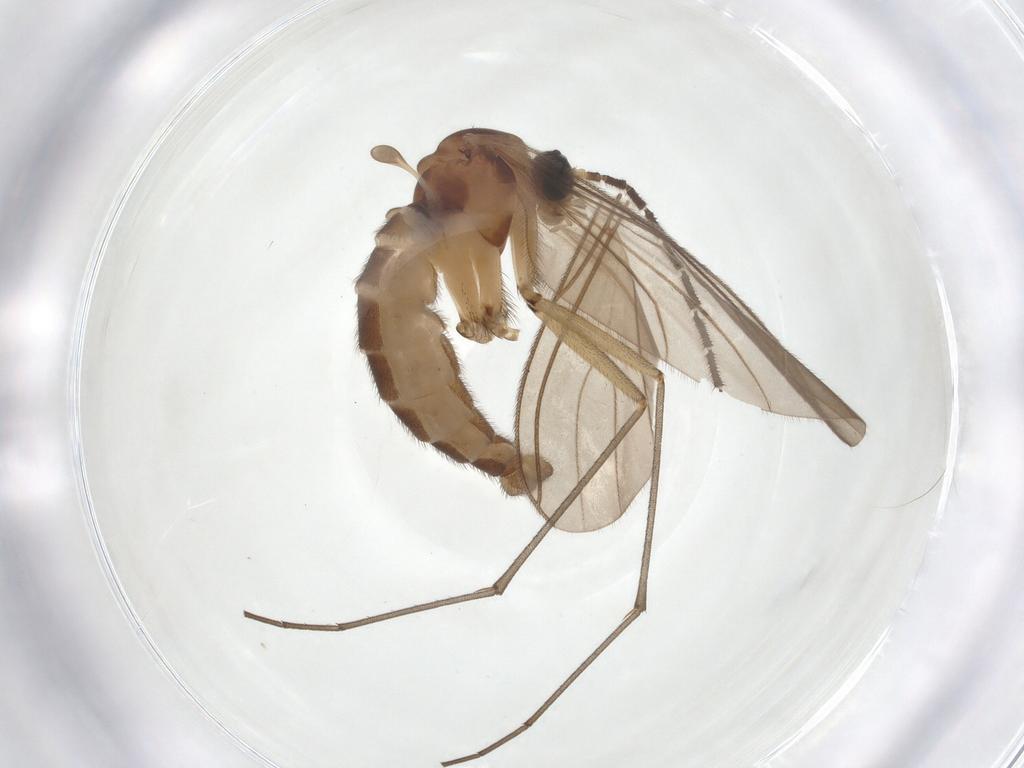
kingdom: Animalia
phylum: Arthropoda
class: Insecta
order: Diptera
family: Sciaridae
